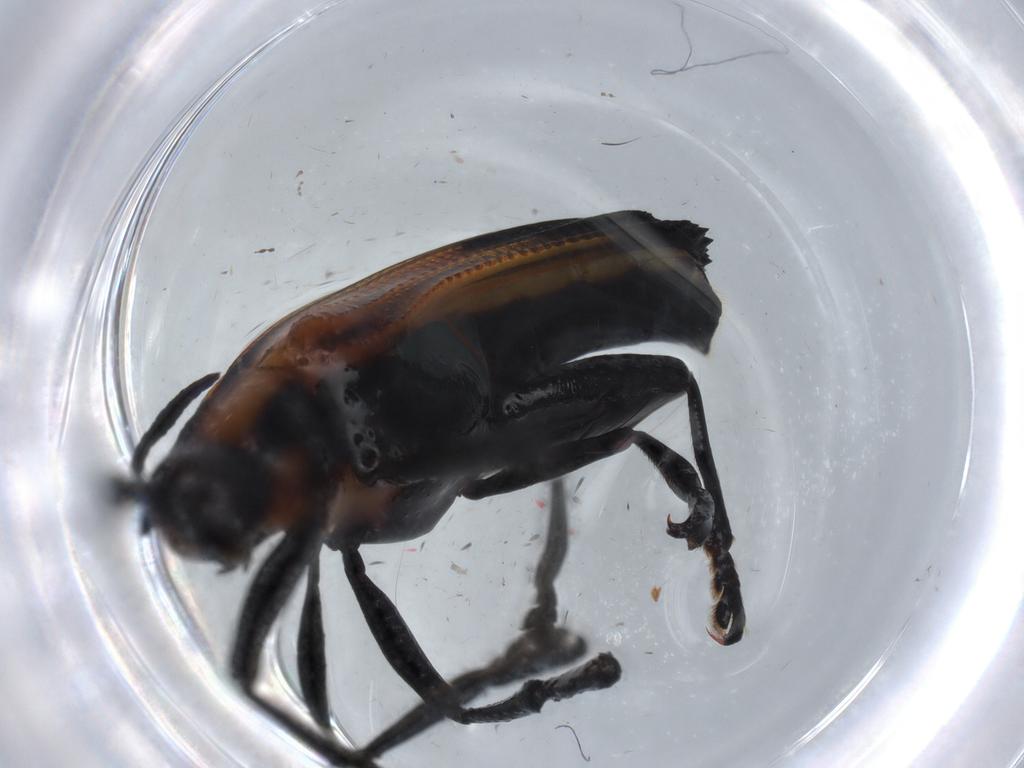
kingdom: Animalia
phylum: Arthropoda
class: Insecta
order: Coleoptera
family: Chrysomelidae
